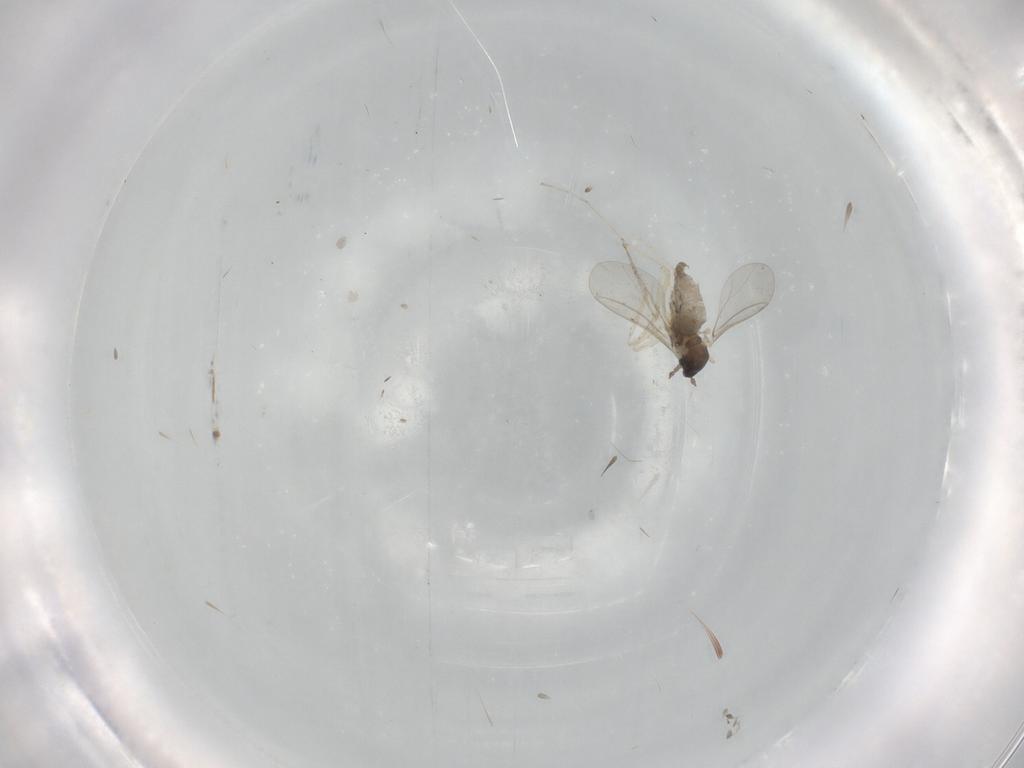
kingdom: Animalia
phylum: Arthropoda
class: Insecta
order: Diptera
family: Cecidomyiidae
